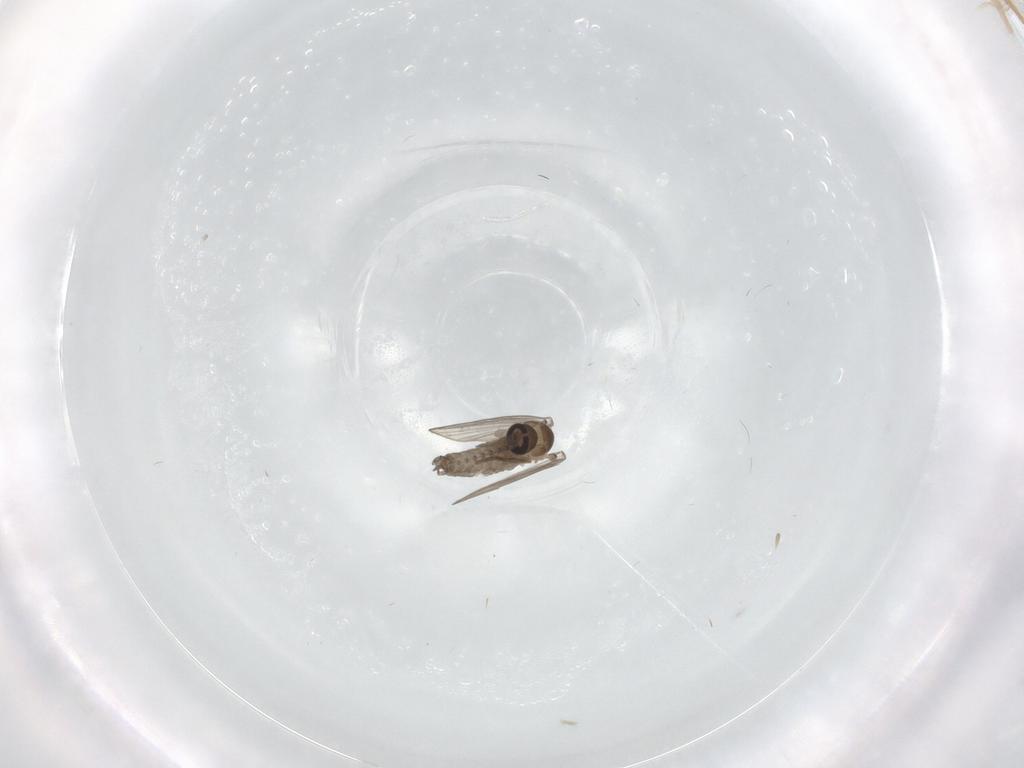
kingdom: Animalia
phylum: Arthropoda
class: Insecta
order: Diptera
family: Psychodidae
